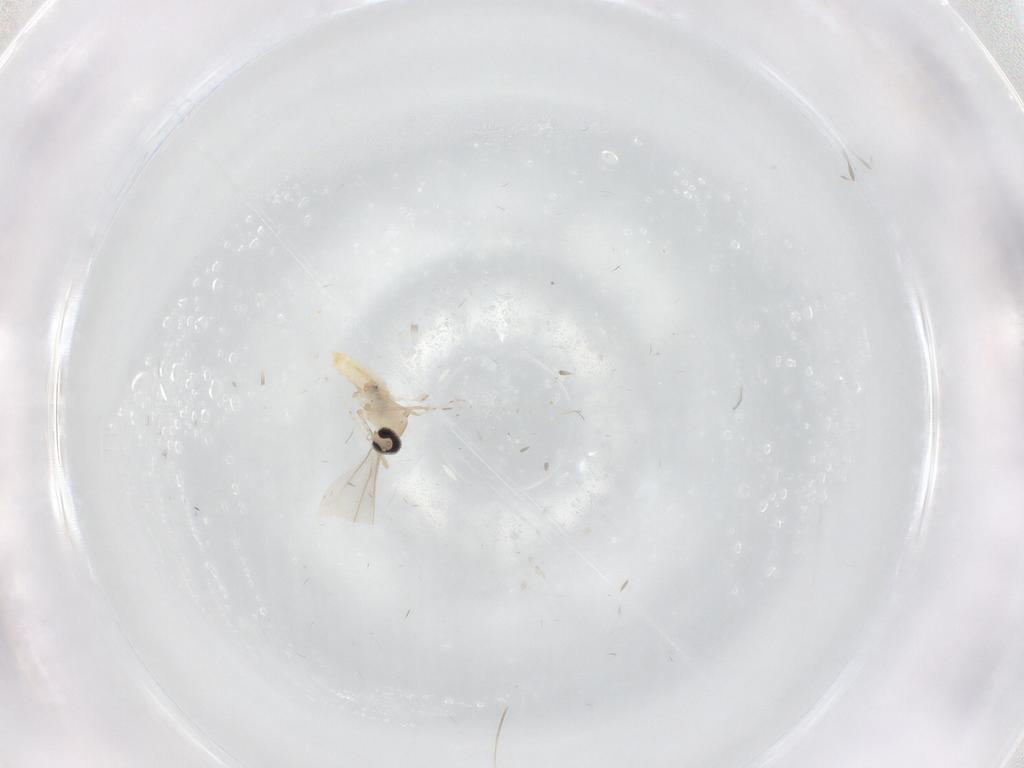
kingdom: Animalia
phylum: Arthropoda
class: Insecta
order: Diptera
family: Cecidomyiidae
